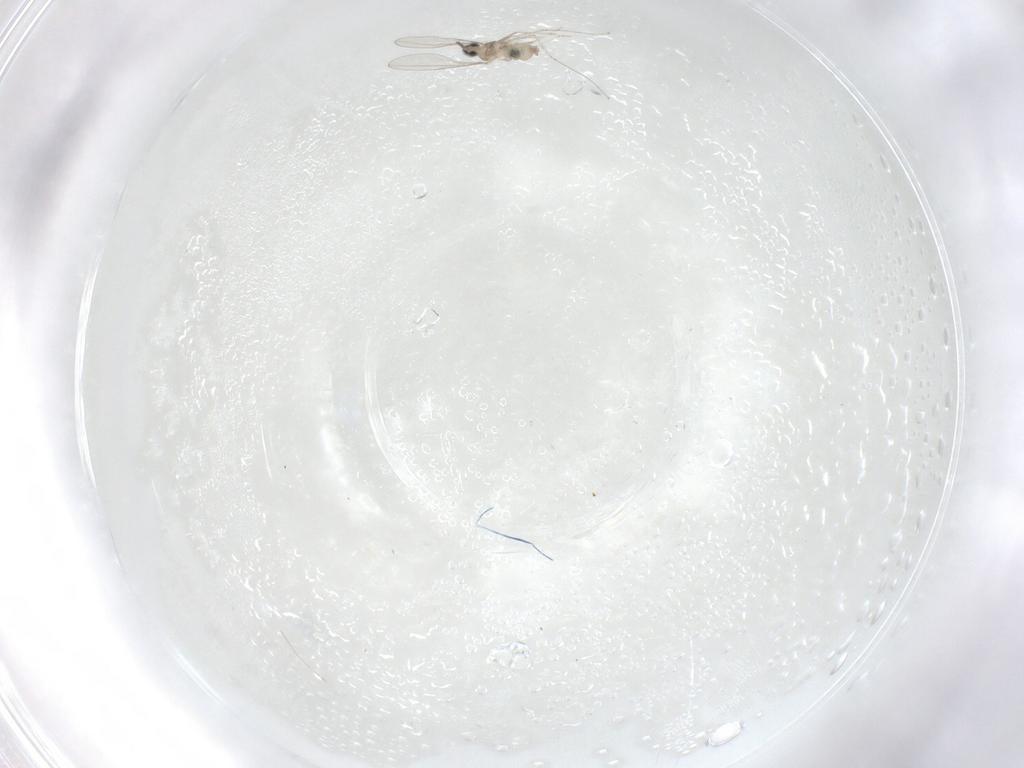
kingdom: Animalia
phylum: Arthropoda
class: Insecta
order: Diptera
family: Cecidomyiidae
